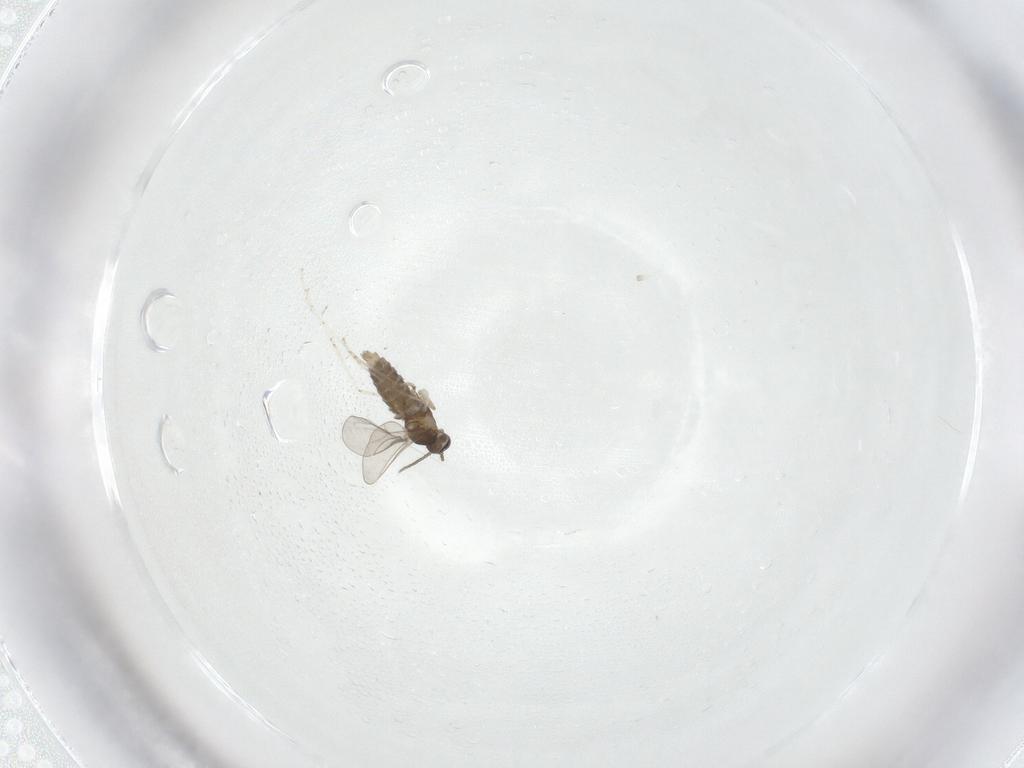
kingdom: Animalia
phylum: Arthropoda
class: Insecta
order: Diptera
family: Cecidomyiidae
